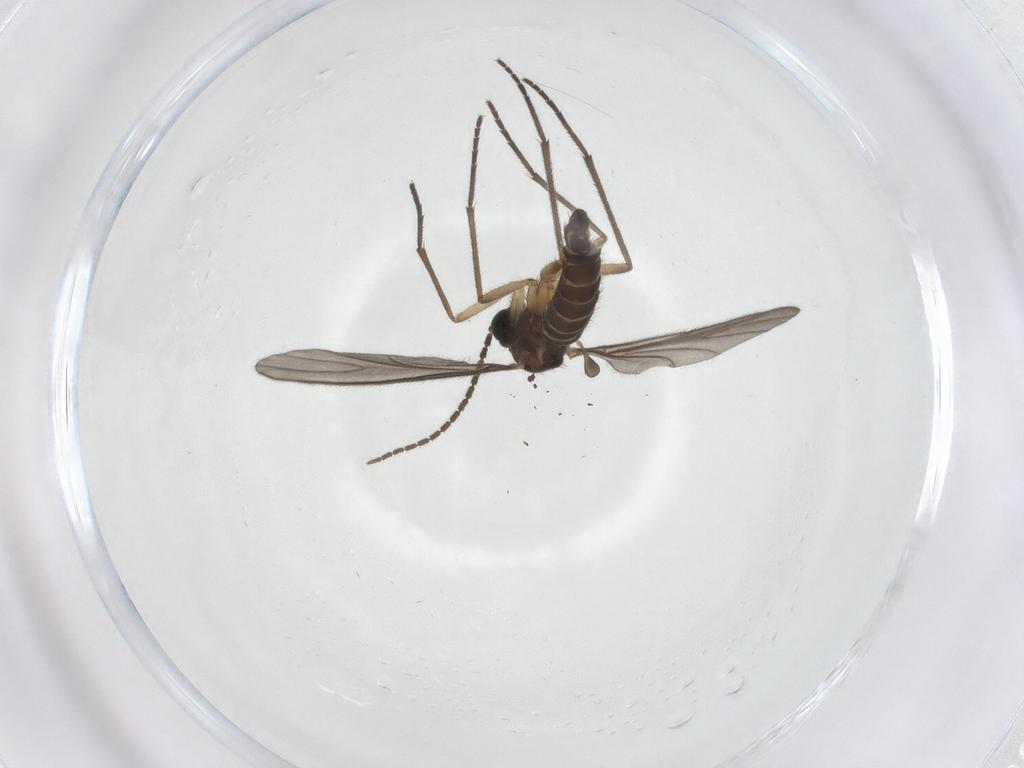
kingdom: Animalia
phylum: Arthropoda
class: Insecta
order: Diptera
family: Sciaridae
